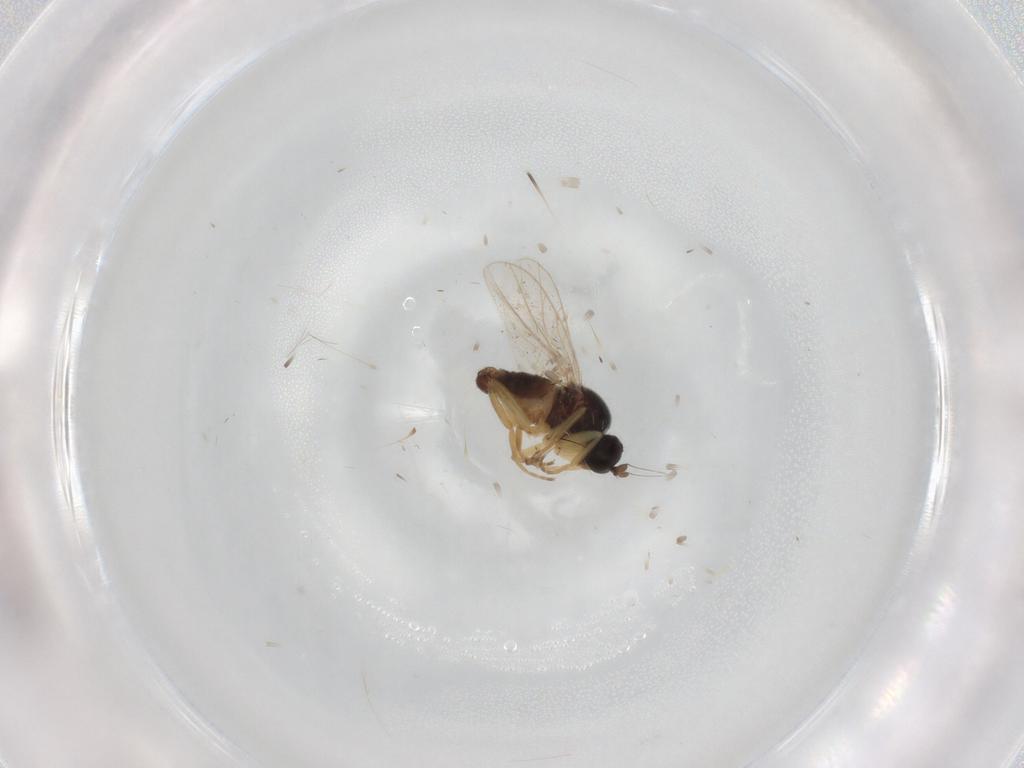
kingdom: Animalia
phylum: Arthropoda
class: Insecta
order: Diptera
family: Hybotidae
